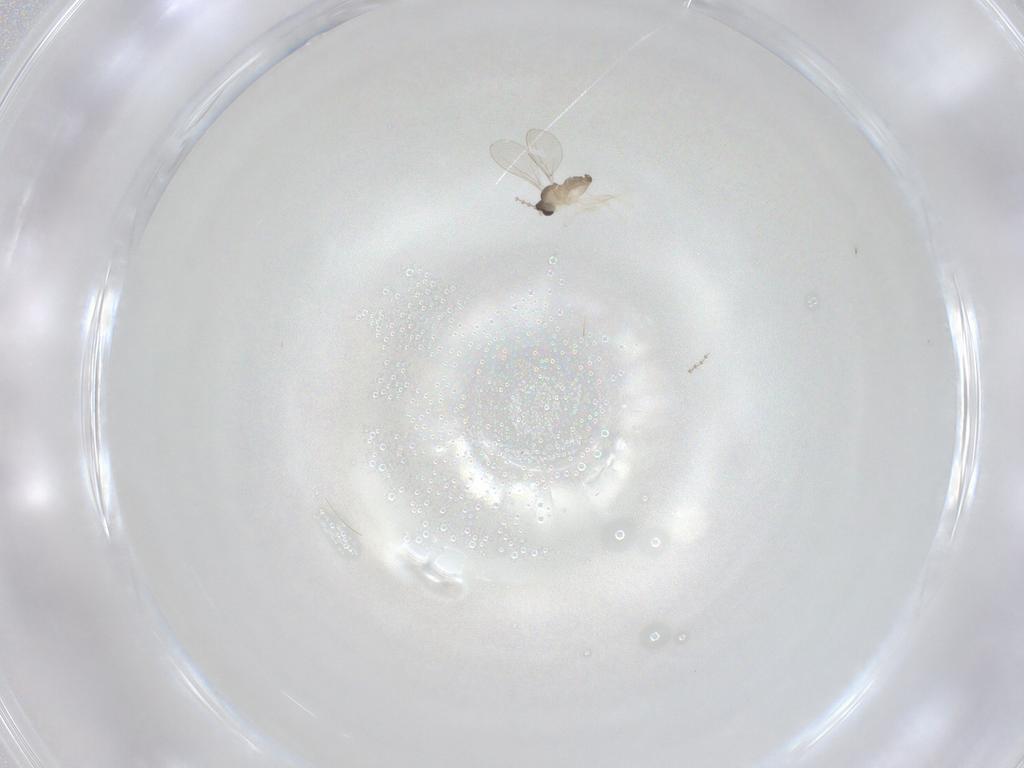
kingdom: Animalia
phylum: Arthropoda
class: Insecta
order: Diptera
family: Cecidomyiidae
